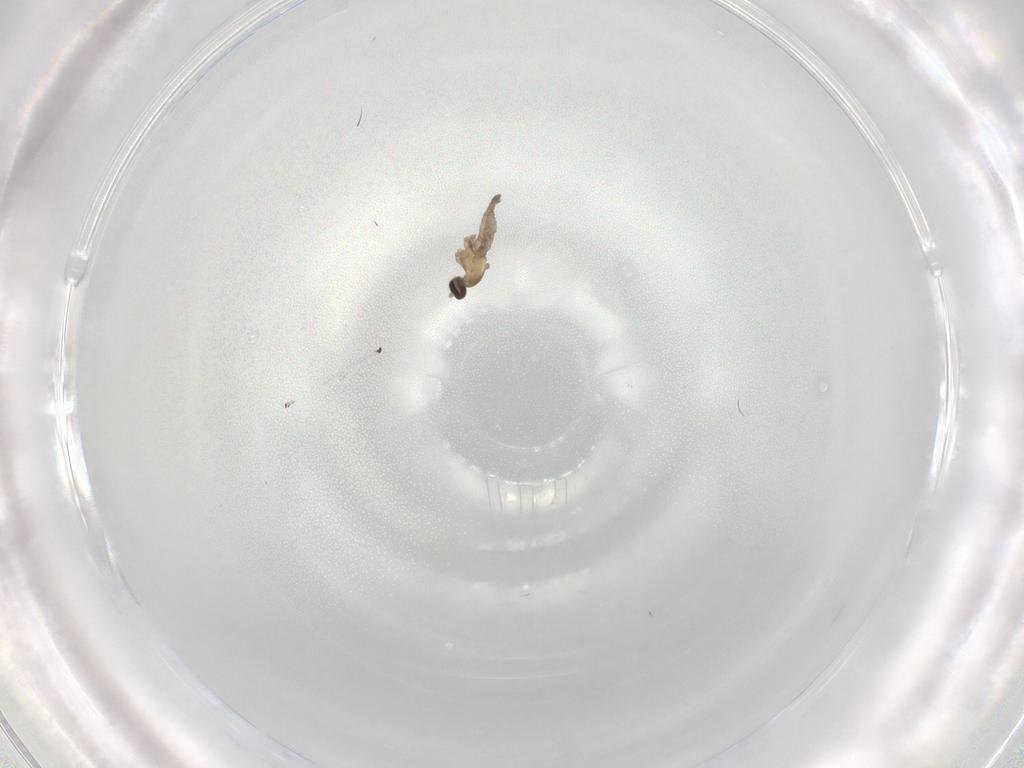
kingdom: Animalia
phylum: Arthropoda
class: Insecta
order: Diptera
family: Cecidomyiidae
